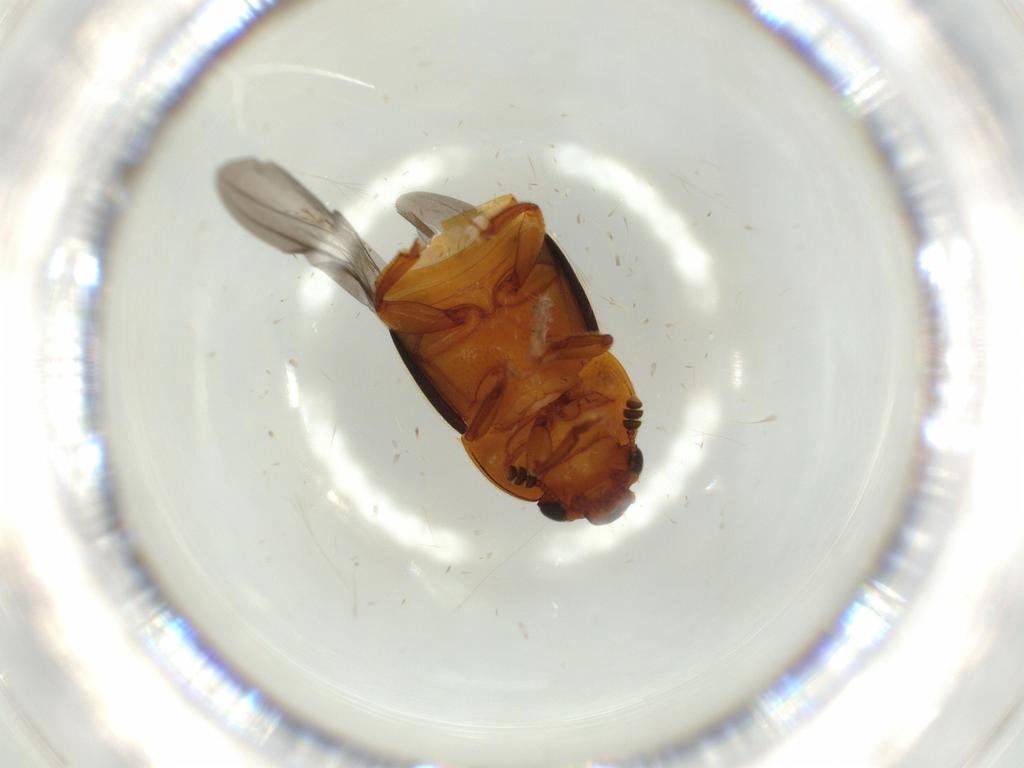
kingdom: Animalia
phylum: Arthropoda
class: Insecta
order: Coleoptera
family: Nitidulidae
